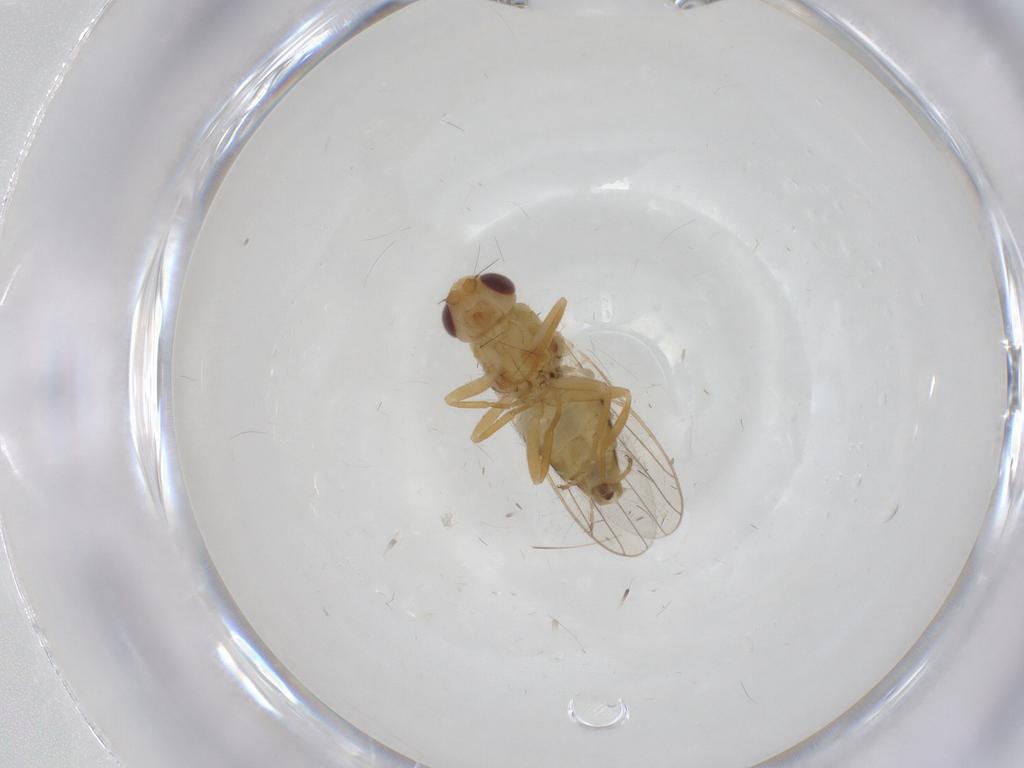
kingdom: Animalia
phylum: Arthropoda
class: Insecta
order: Diptera
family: Chloropidae
